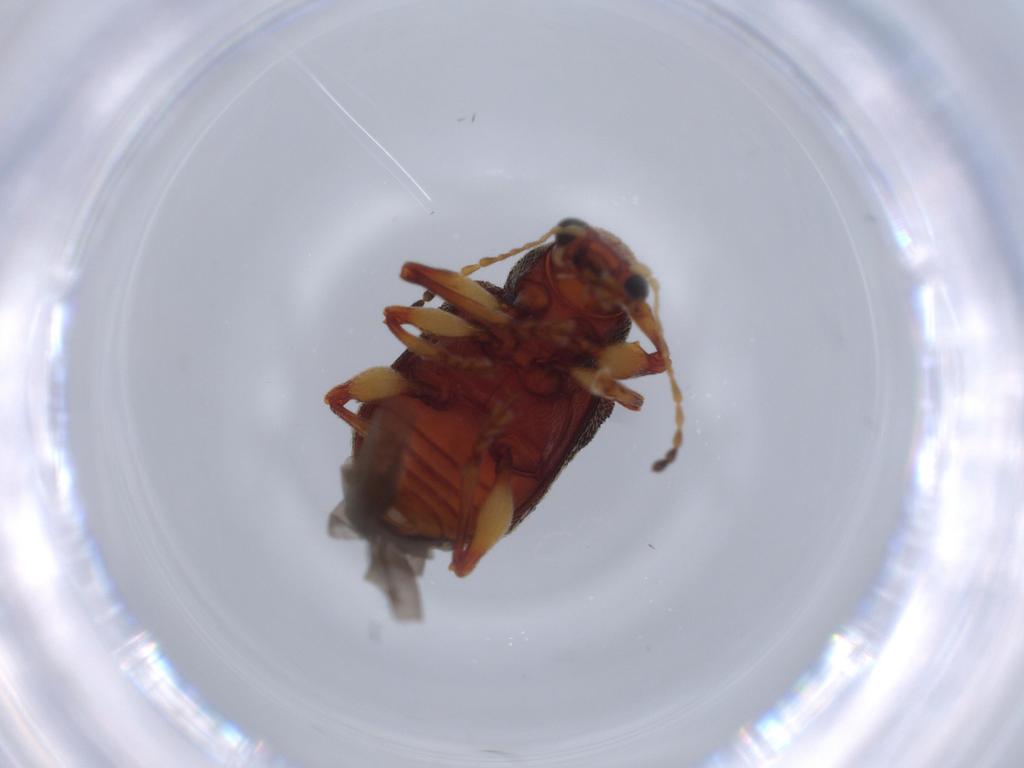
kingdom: Animalia
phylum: Arthropoda
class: Insecta
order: Coleoptera
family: Chrysomelidae
